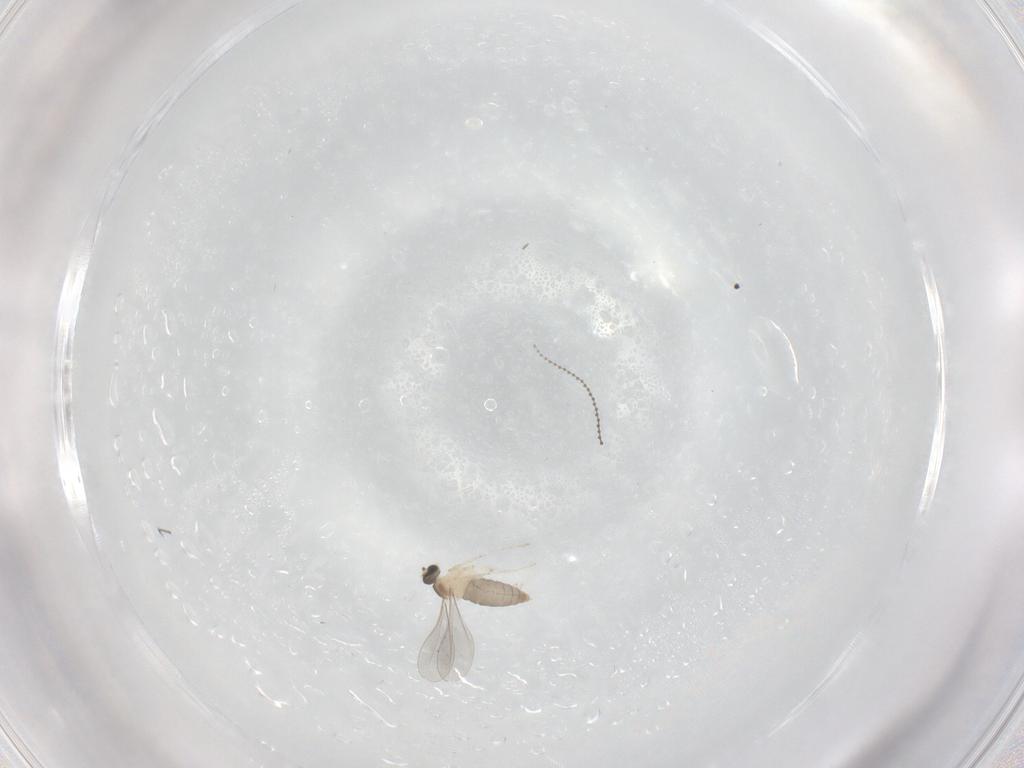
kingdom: Animalia
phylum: Arthropoda
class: Insecta
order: Diptera
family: Cecidomyiidae
